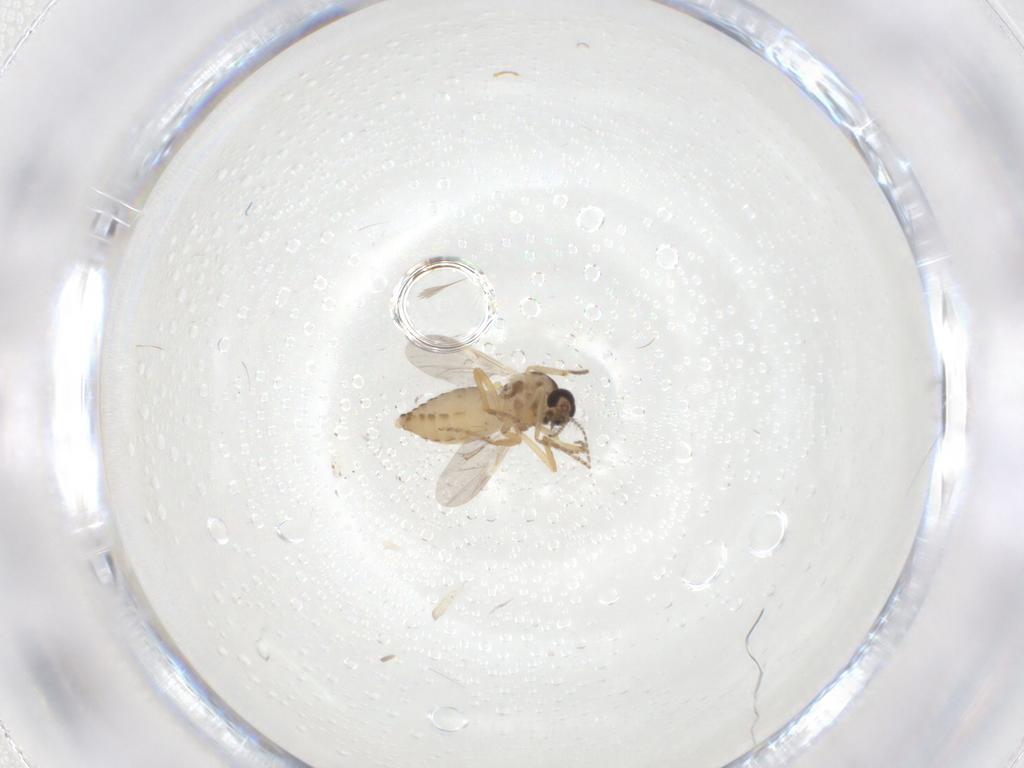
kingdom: Animalia
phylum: Arthropoda
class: Insecta
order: Diptera
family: Ceratopogonidae
